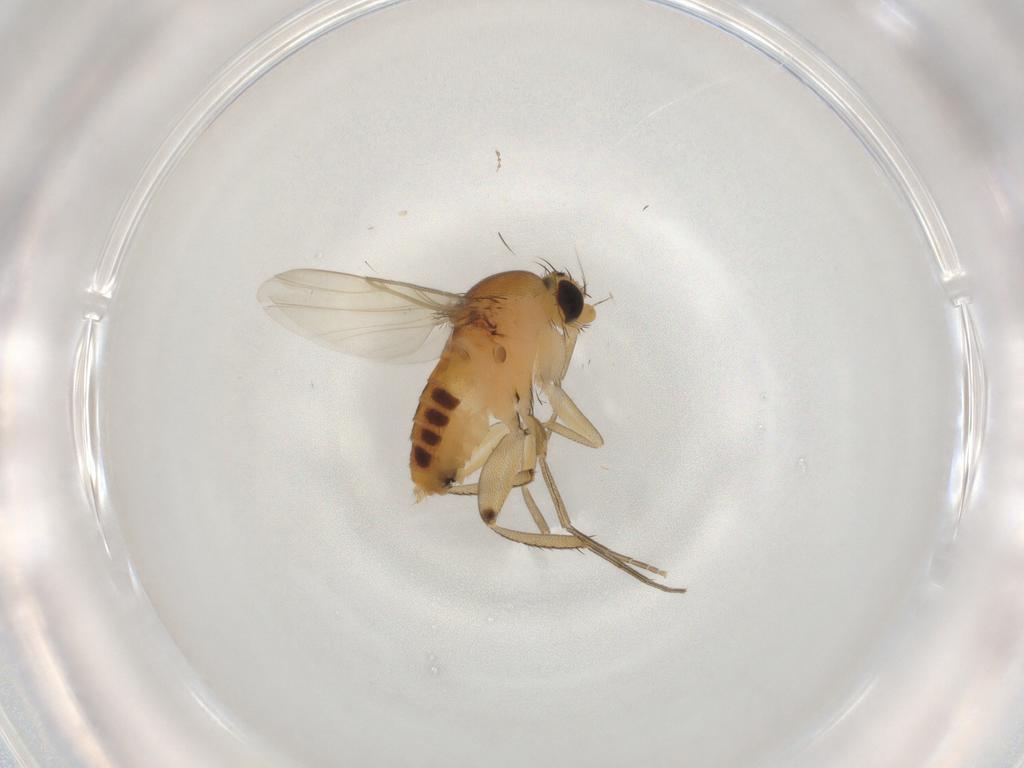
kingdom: Animalia
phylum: Arthropoda
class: Insecta
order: Diptera
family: Phoridae
